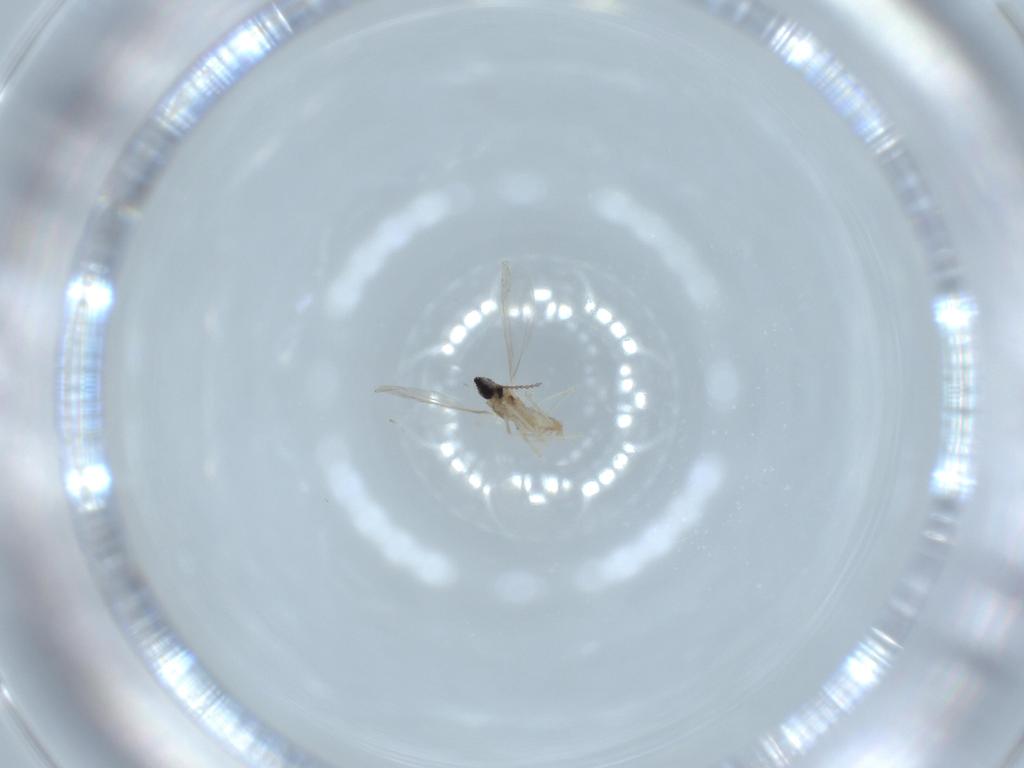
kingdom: Animalia
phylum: Arthropoda
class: Insecta
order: Diptera
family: Cecidomyiidae
